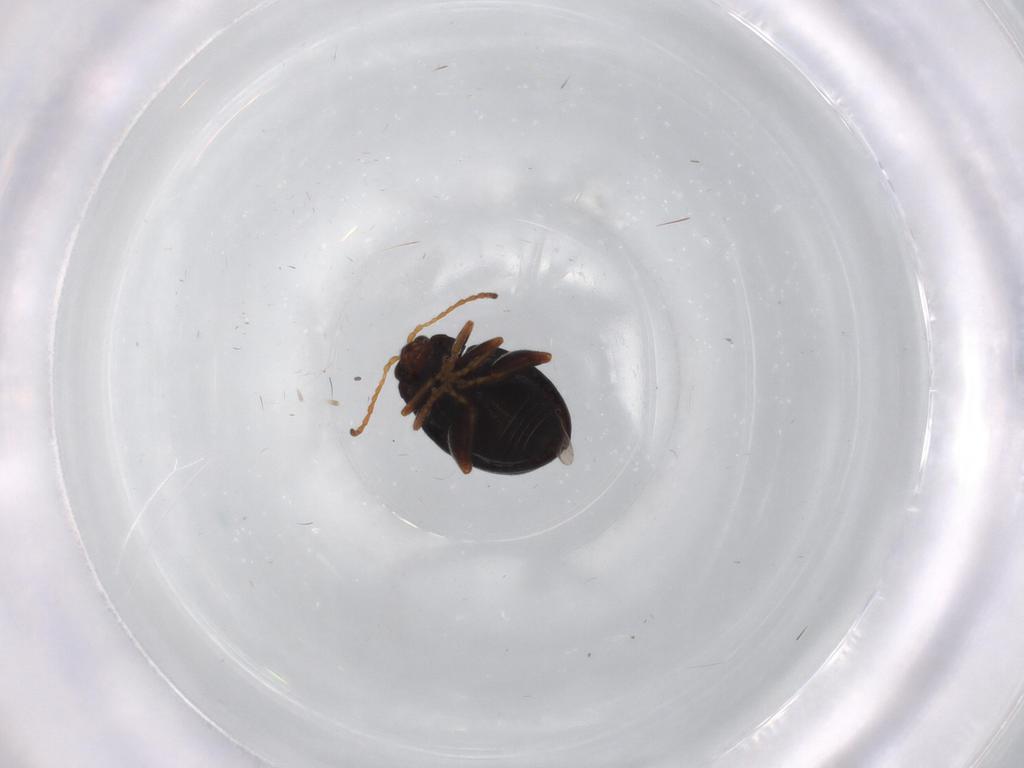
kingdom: Animalia
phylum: Arthropoda
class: Insecta
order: Coleoptera
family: Chrysomelidae
